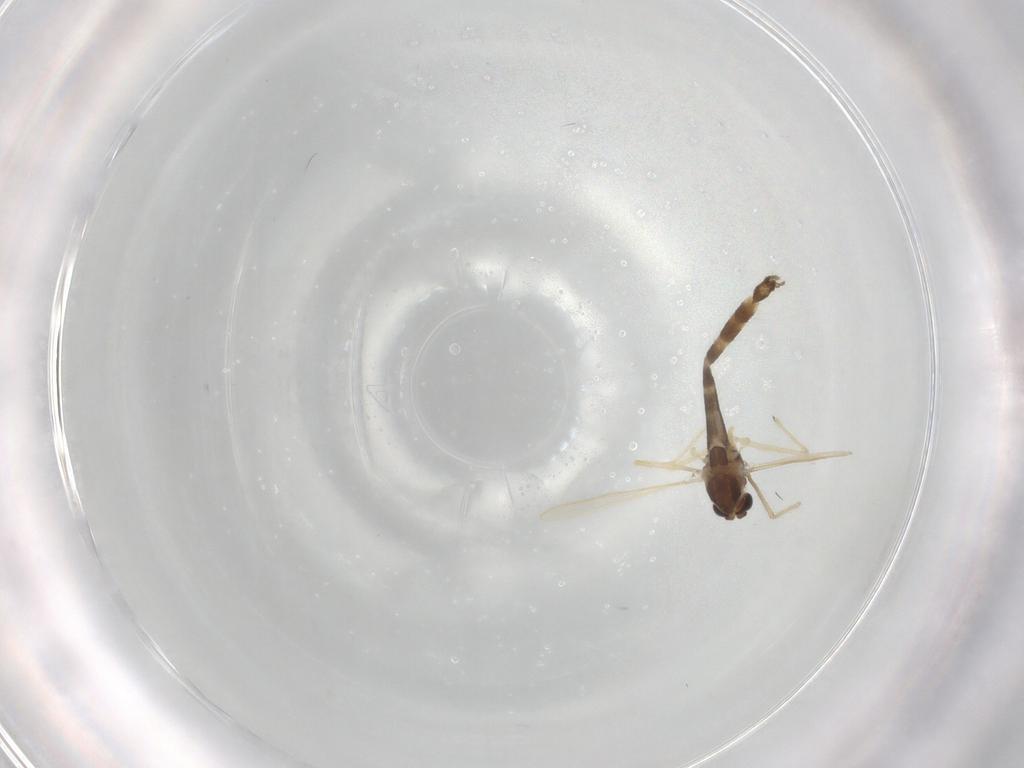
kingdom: Animalia
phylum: Arthropoda
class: Insecta
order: Diptera
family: Chironomidae
